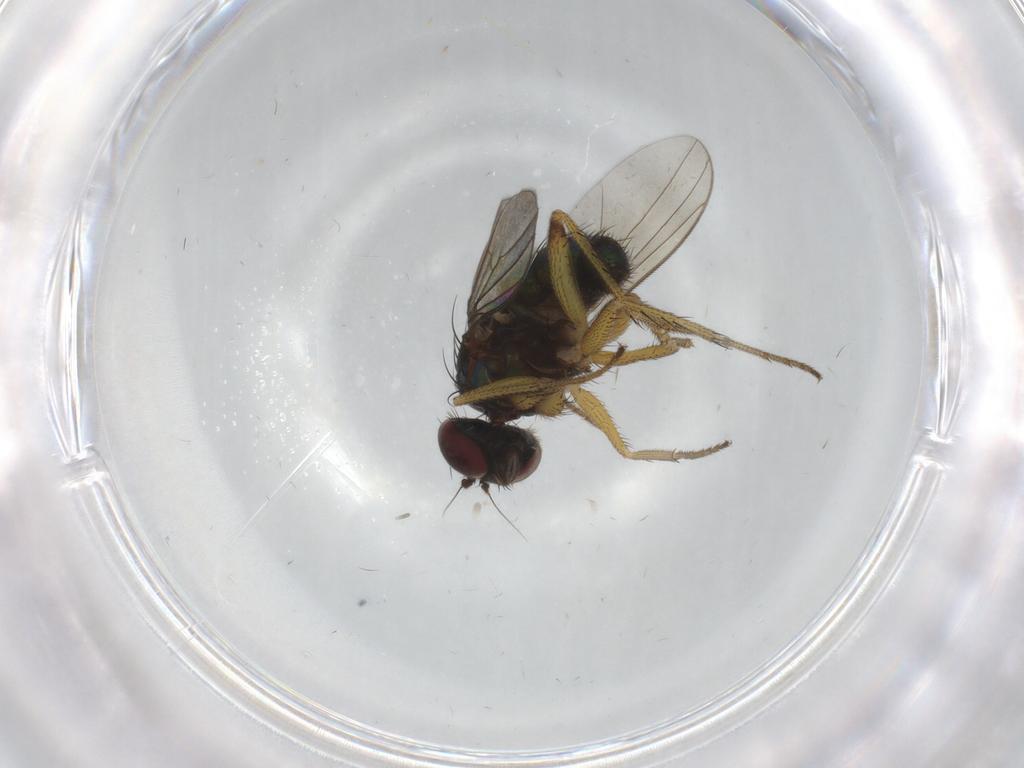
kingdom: Animalia
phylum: Arthropoda
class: Insecta
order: Diptera
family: Dolichopodidae
